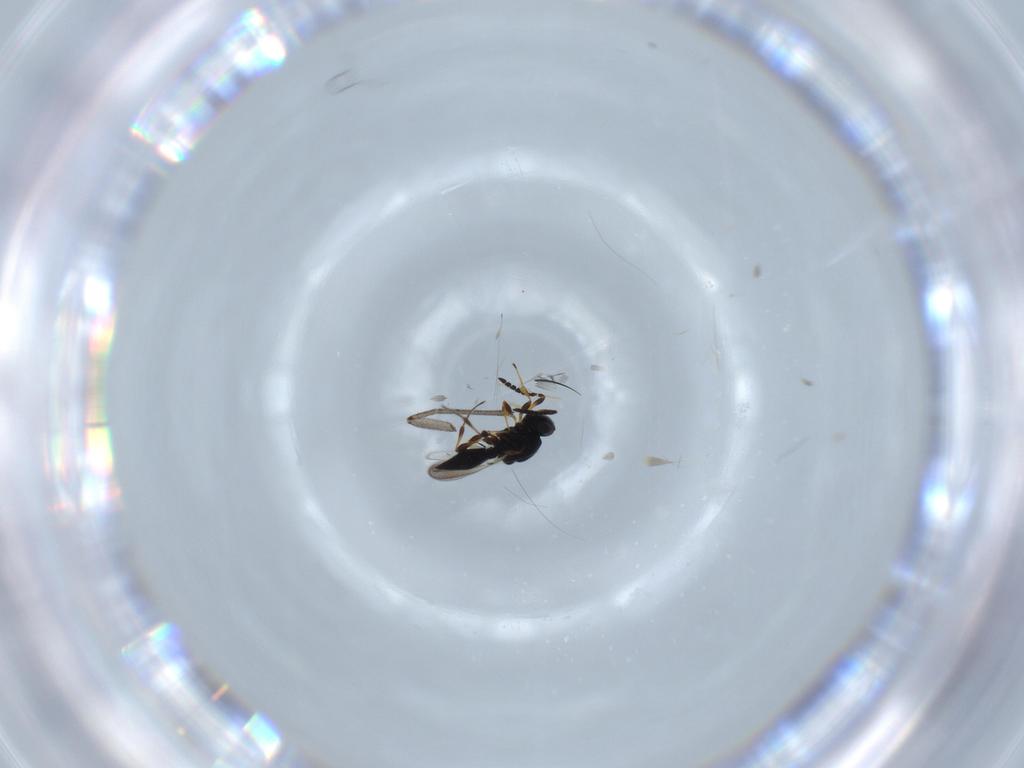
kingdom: Animalia
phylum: Arthropoda
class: Insecta
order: Hymenoptera
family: Platygastridae
